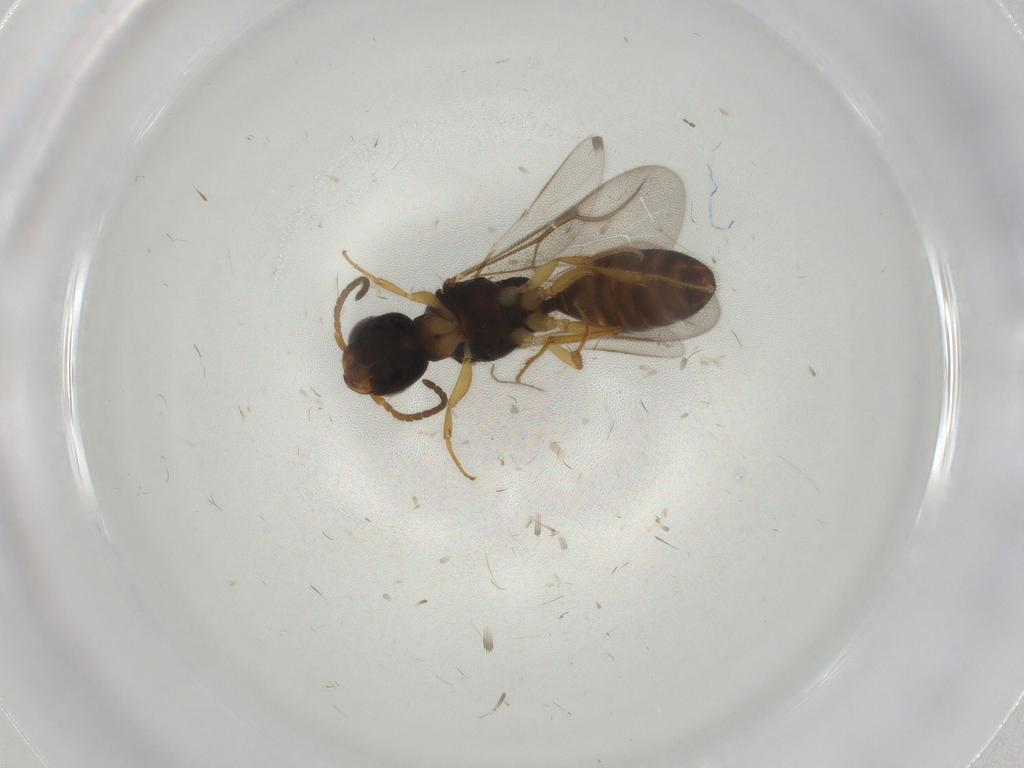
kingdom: Animalia
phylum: Arthropoda
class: Insecta
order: Hymenoptera
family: Bethylidae
